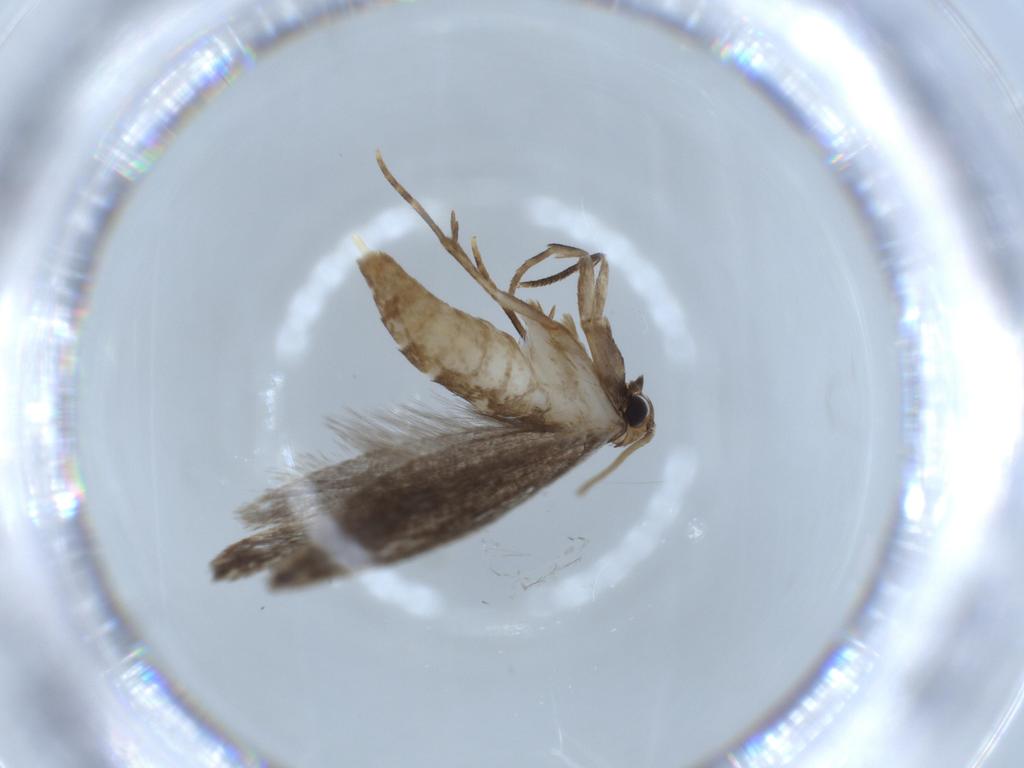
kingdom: Animalia
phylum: Arthropoda
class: Insecta
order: Lepidoptera
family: Tineidae
